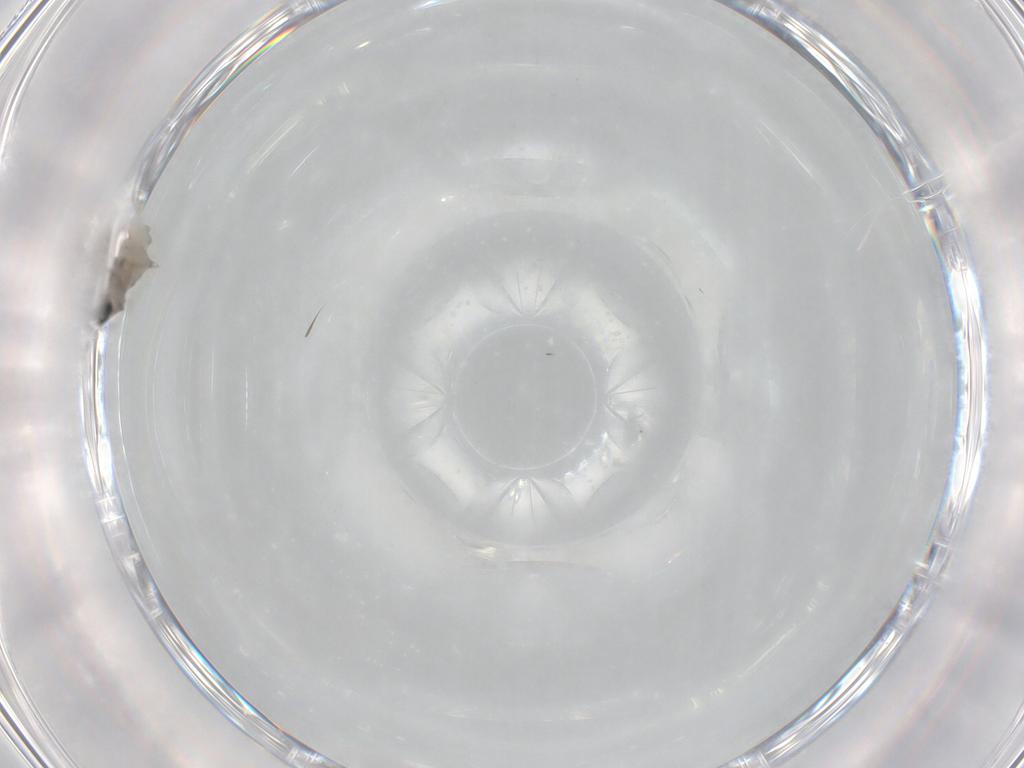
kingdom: Animalia
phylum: Arthropoda
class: Insecta
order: Diptera
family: Cecidomyiidae
